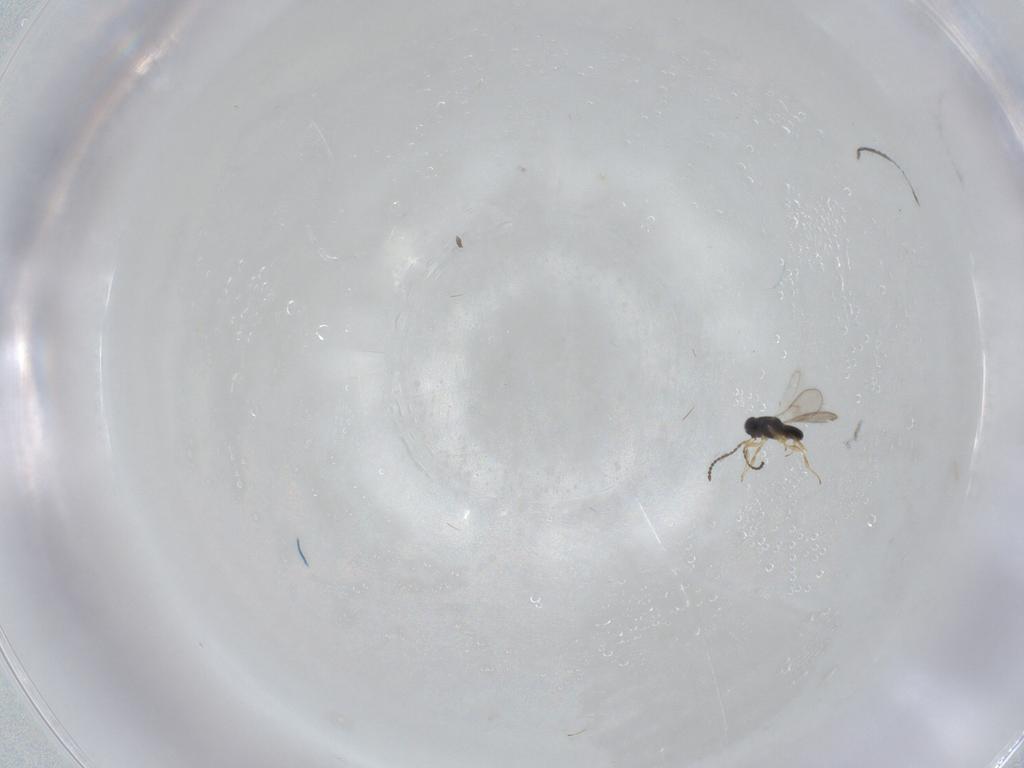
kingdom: Animalia
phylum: Arthropoda
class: Insecta
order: Hymenoptera
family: Scelionidae
